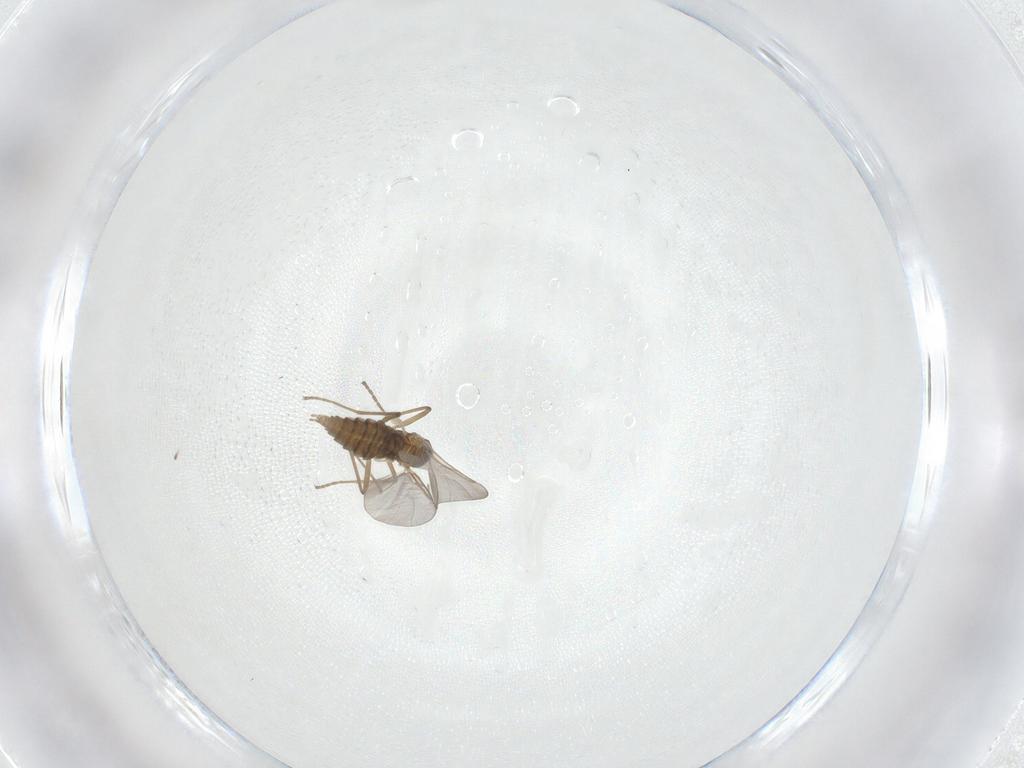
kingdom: Animalia
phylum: Arthropoda
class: Insecta
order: Diptera
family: Cecidomyiidae
